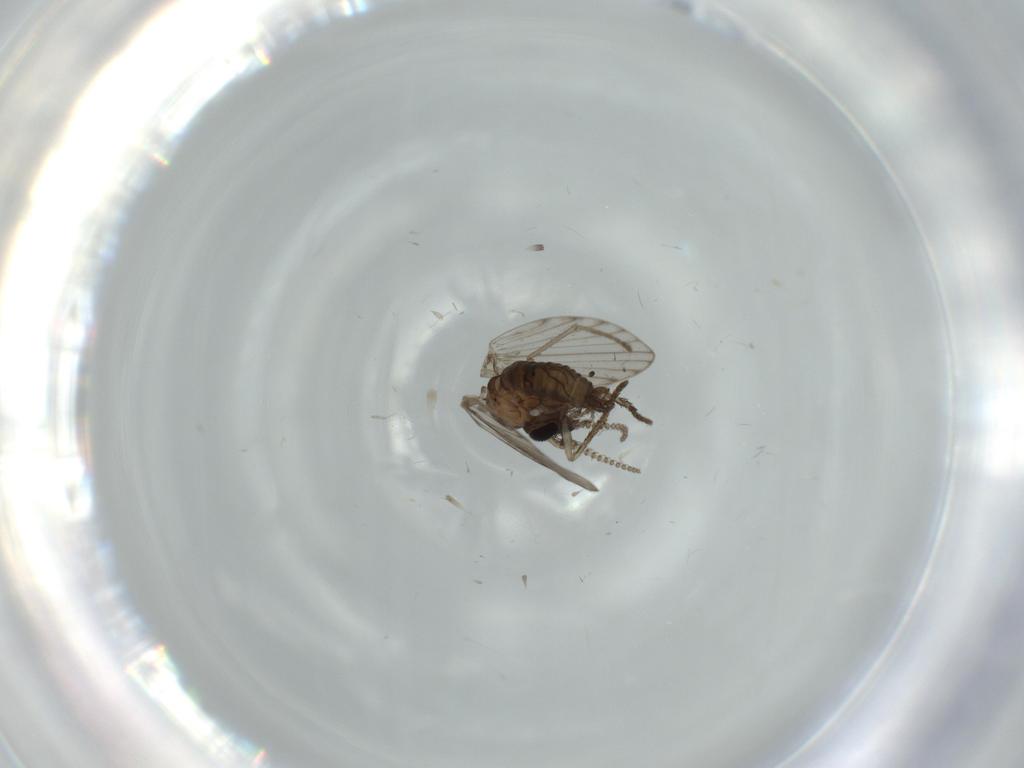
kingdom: Animalia
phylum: Arthropoda
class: Insecta
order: Diptera
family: Psychodidae
